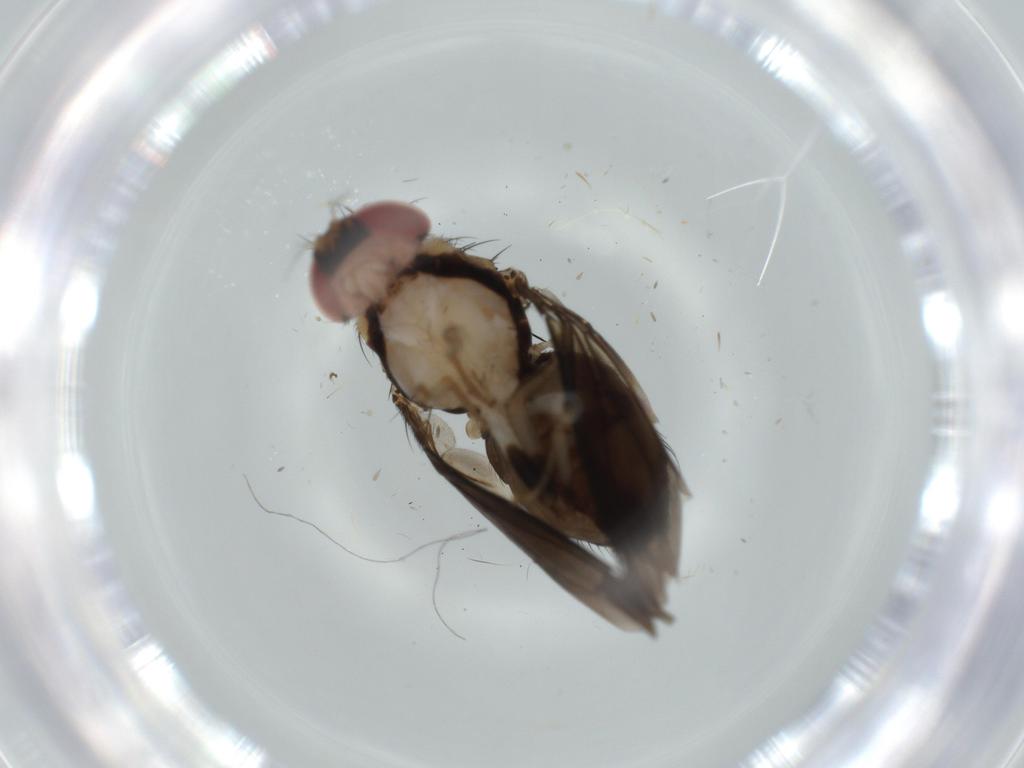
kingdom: Animalia
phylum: Arthropoda
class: Insecta
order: Diptera
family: Drosophilidae
